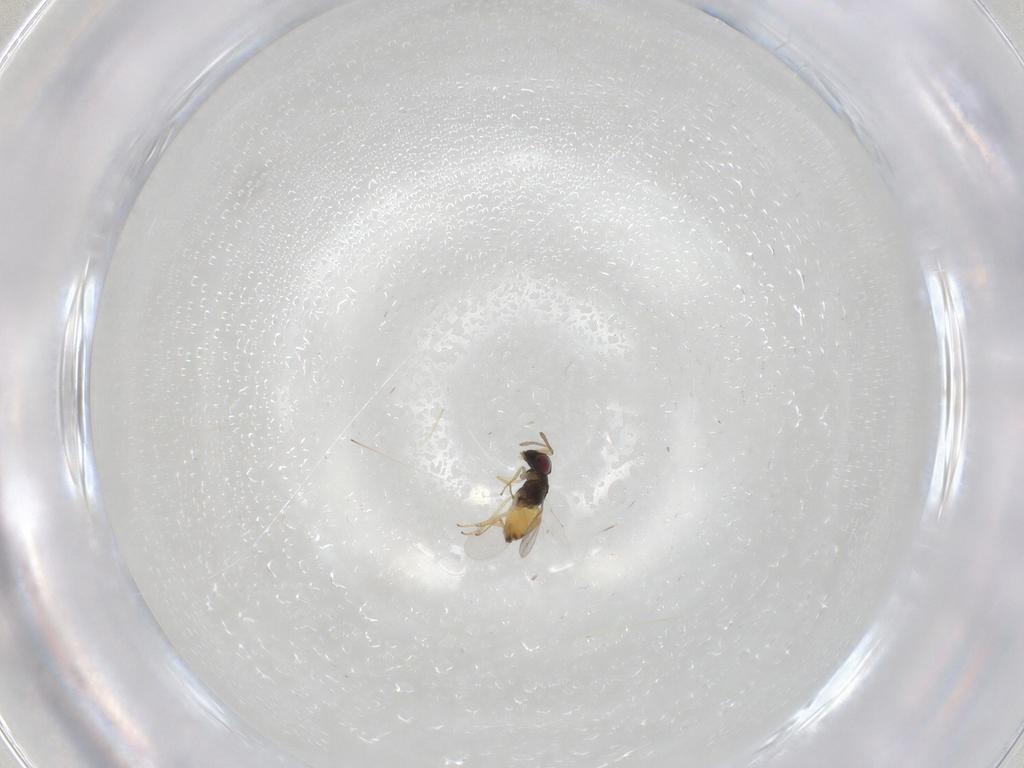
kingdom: Animalia
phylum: Arthropoda
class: Insecta
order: Hymenoptera
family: Encyrtidae
